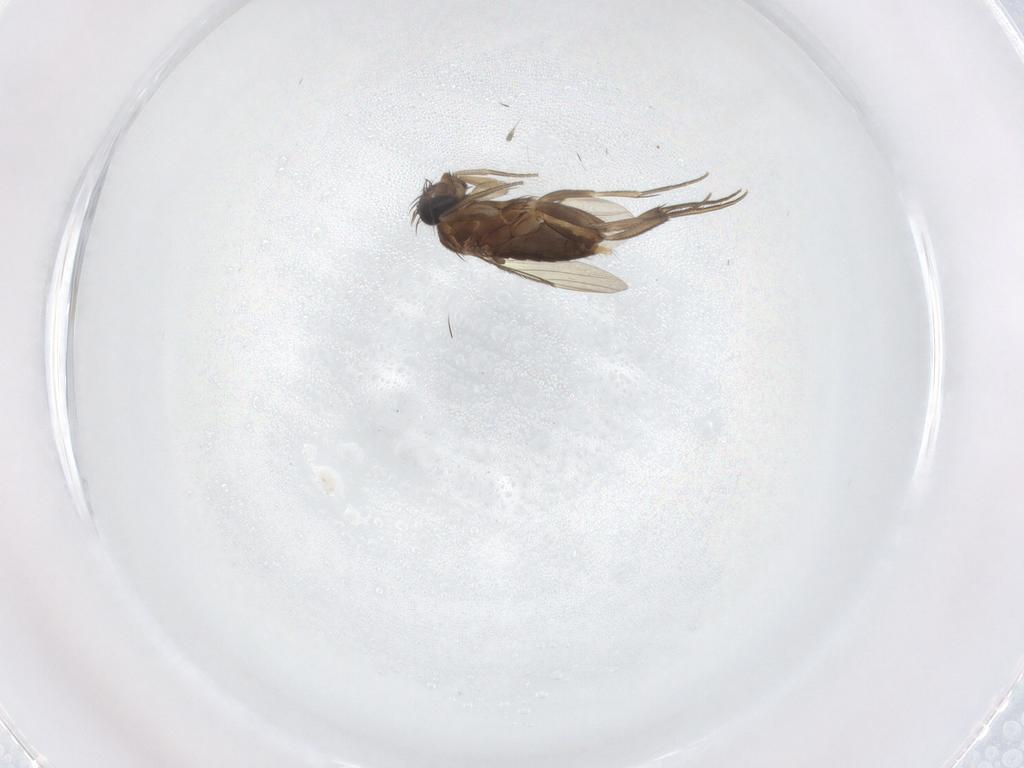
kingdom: Animalia
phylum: Arthropoda
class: Insecta
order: Diptera
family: Phoridae
